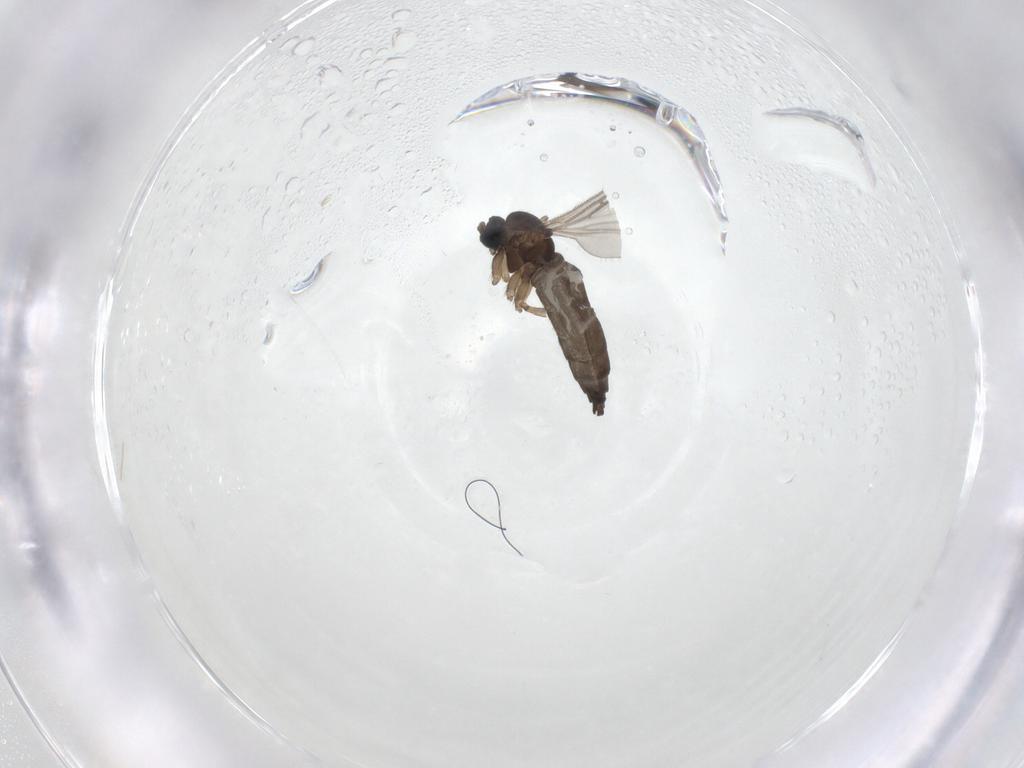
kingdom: Animalia
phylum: Arthropoda
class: Insecta
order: Diptera
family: Sciaridae
